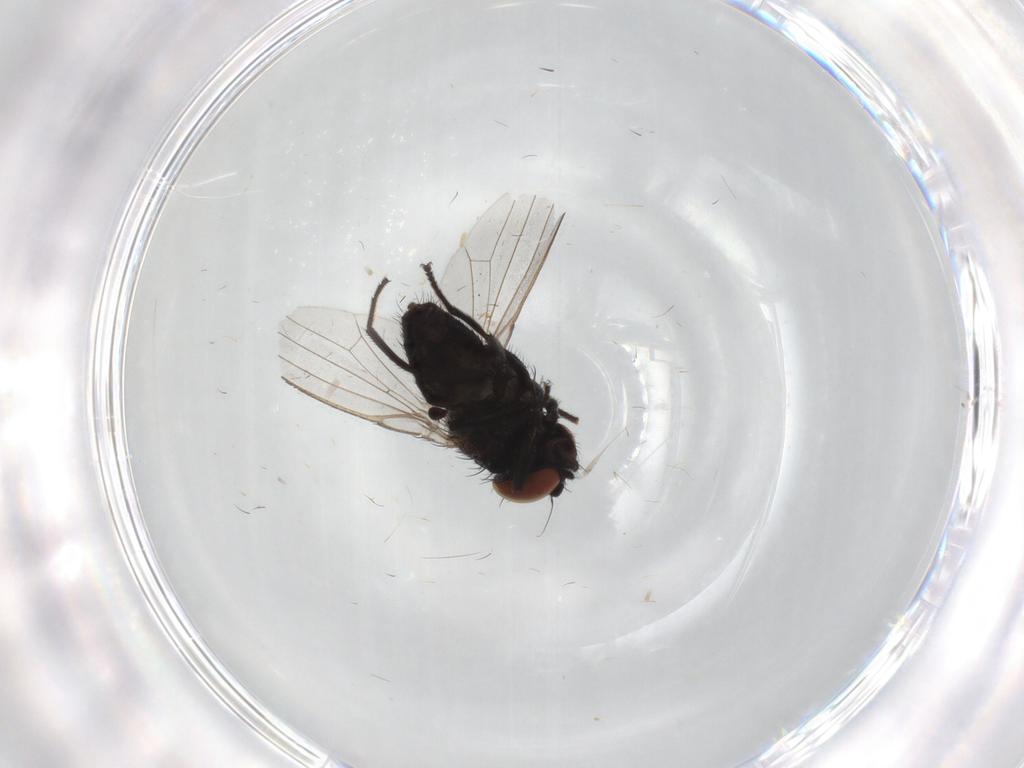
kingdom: Animalia
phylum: Arthropoda
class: Insecta
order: Diptera
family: Milichiidae
